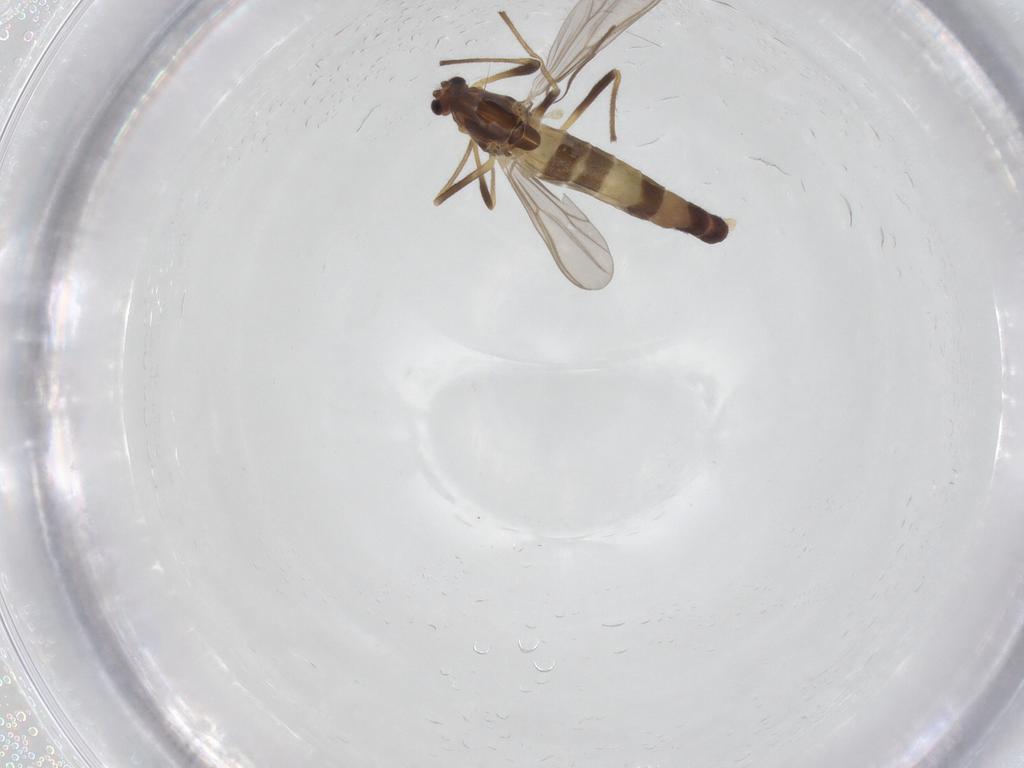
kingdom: Animalia
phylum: Arthropoda
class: Insecta
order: Diptera
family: Chironomidae
